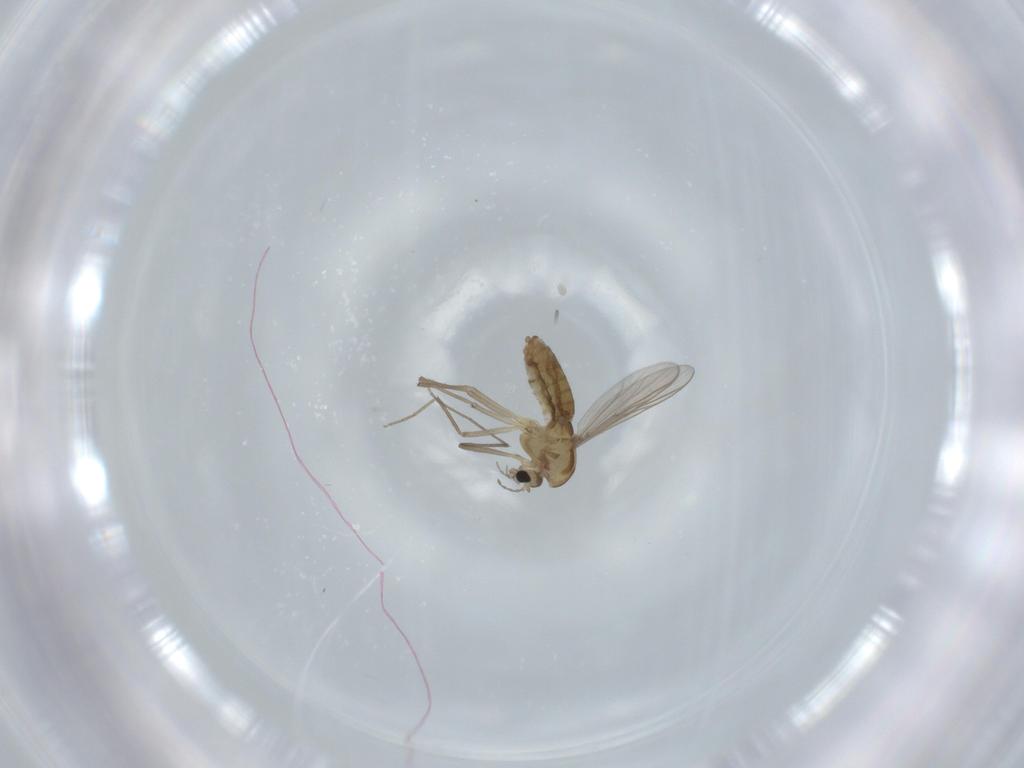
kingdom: Animalia
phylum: Arthropoda
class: Insecta
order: Diptera
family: Chironomidae
